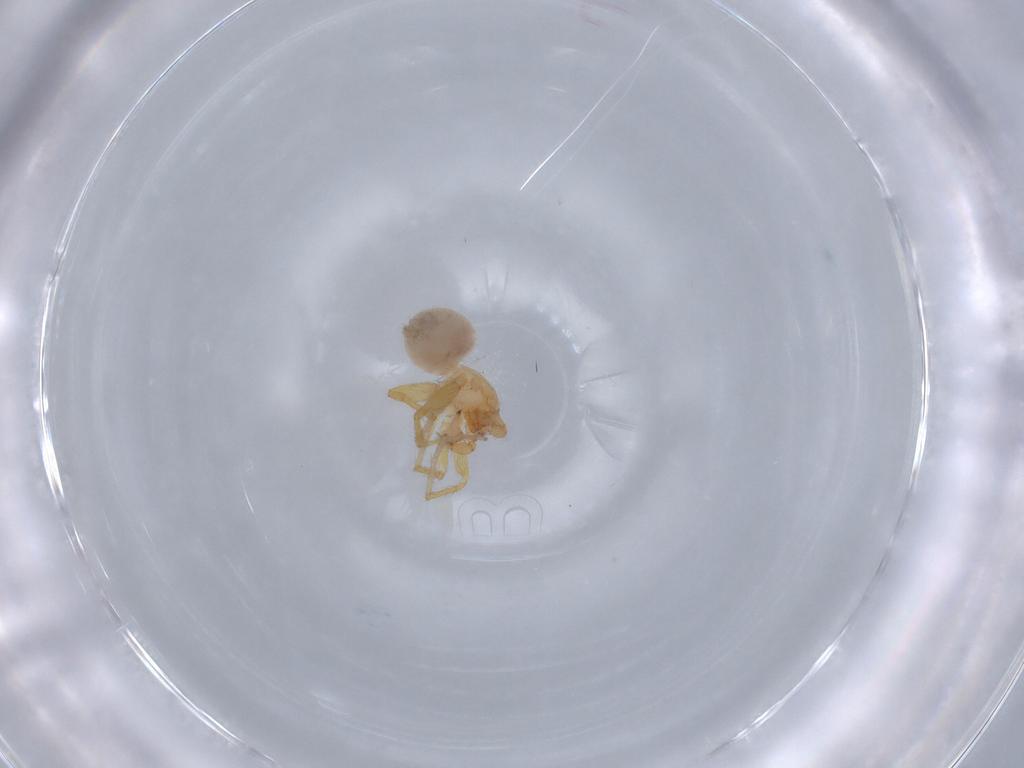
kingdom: Animalia
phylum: Arthropoda
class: Arachnida
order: Araneae
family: Oonopidae
